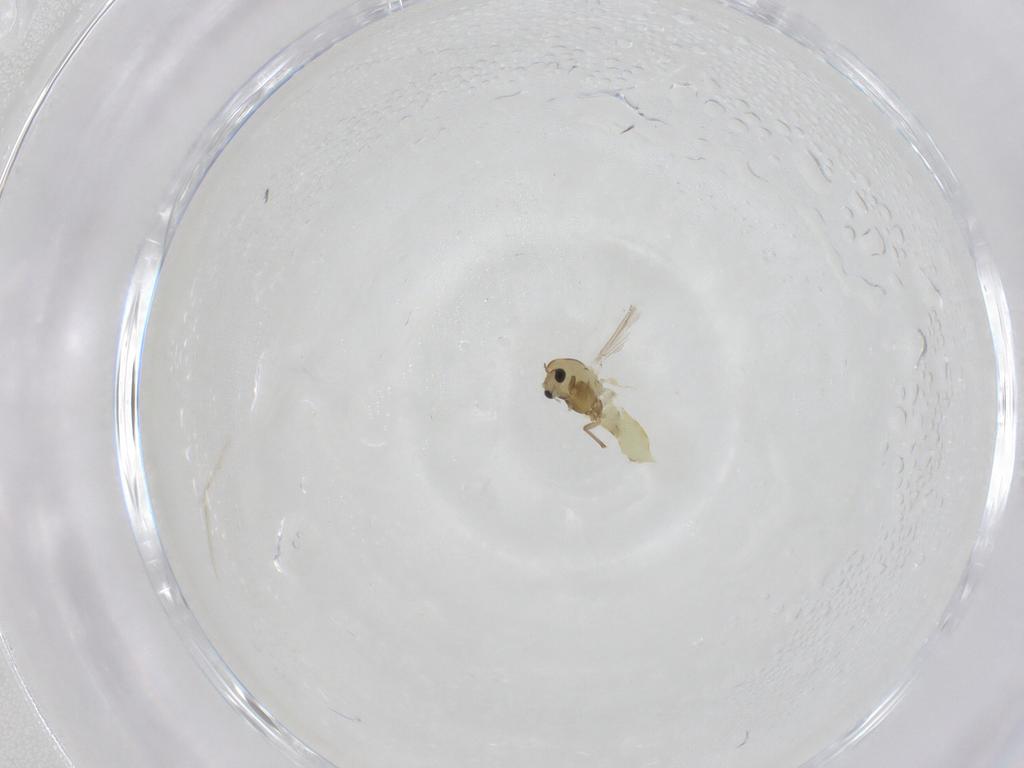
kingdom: Animalia
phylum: Arthropoda
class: Insecta
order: Diptera
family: Chironomidae
